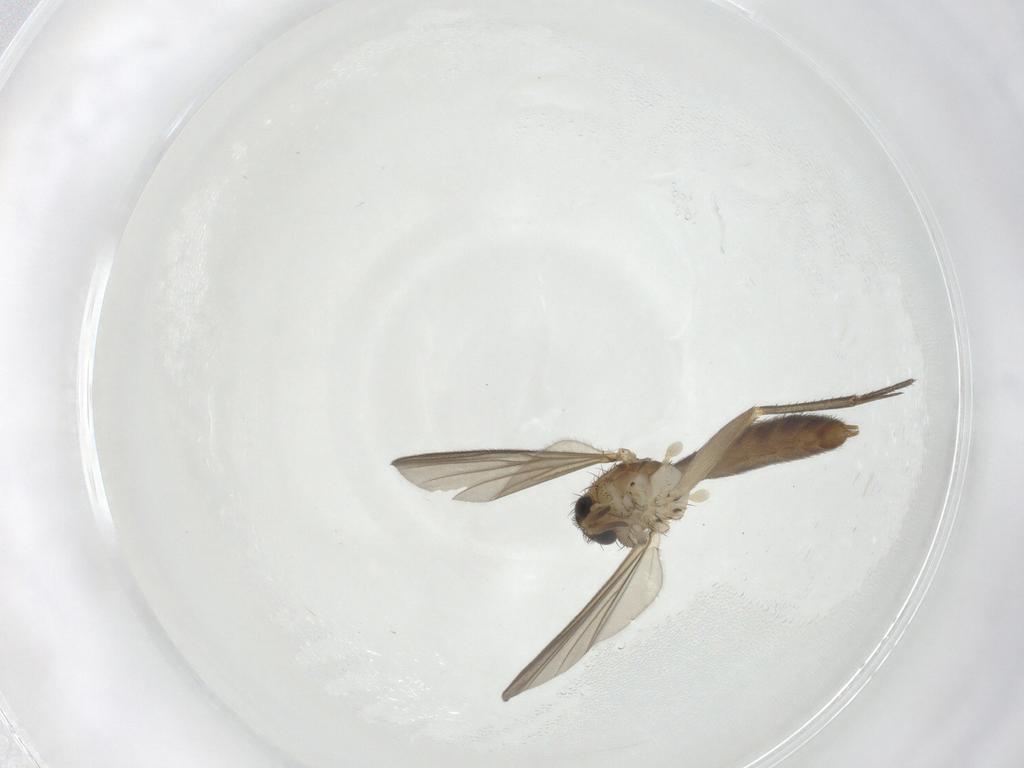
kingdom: Animalia
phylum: Arthropoda
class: Insecta
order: Diptera
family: Mycetophilidae
